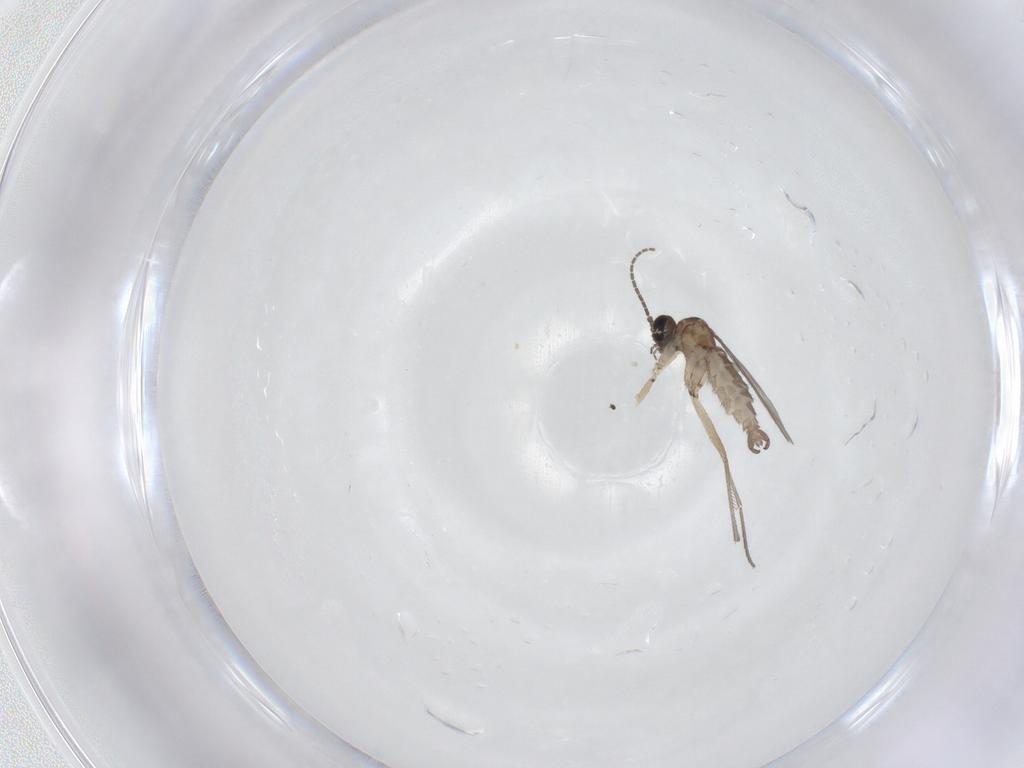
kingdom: Animalia
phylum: Arthropoda
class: Insecta
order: Diptera
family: Sciaridae
